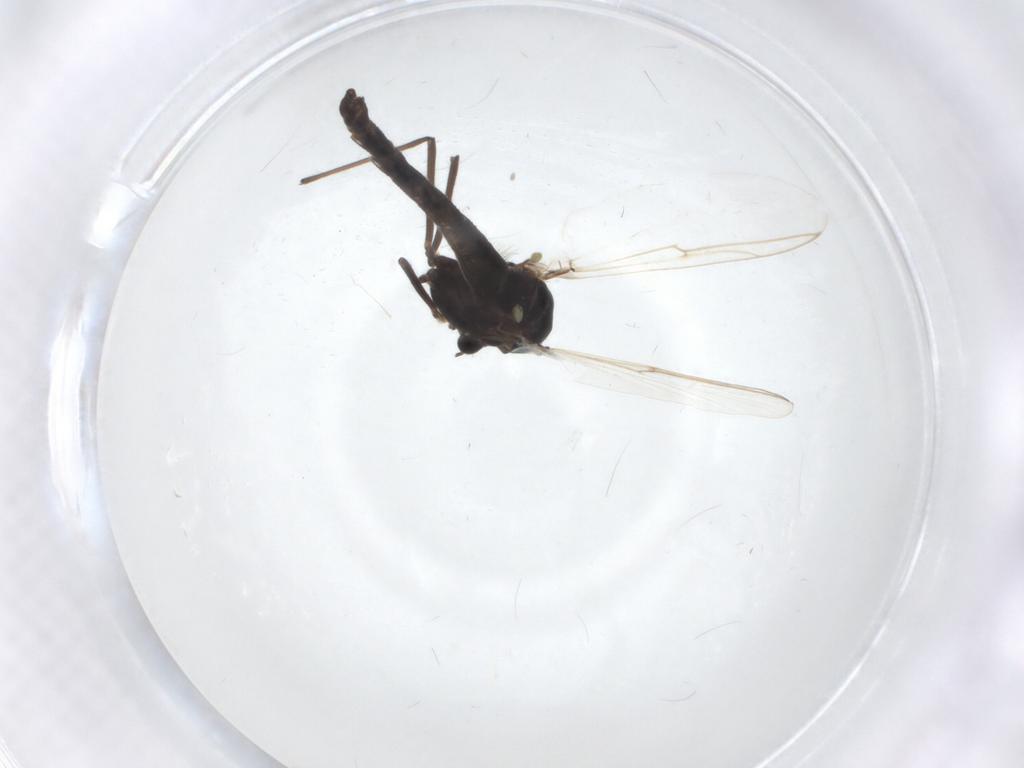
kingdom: Animalia
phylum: Arthropoda
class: Insecta
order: Diptera
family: Chironomidae
